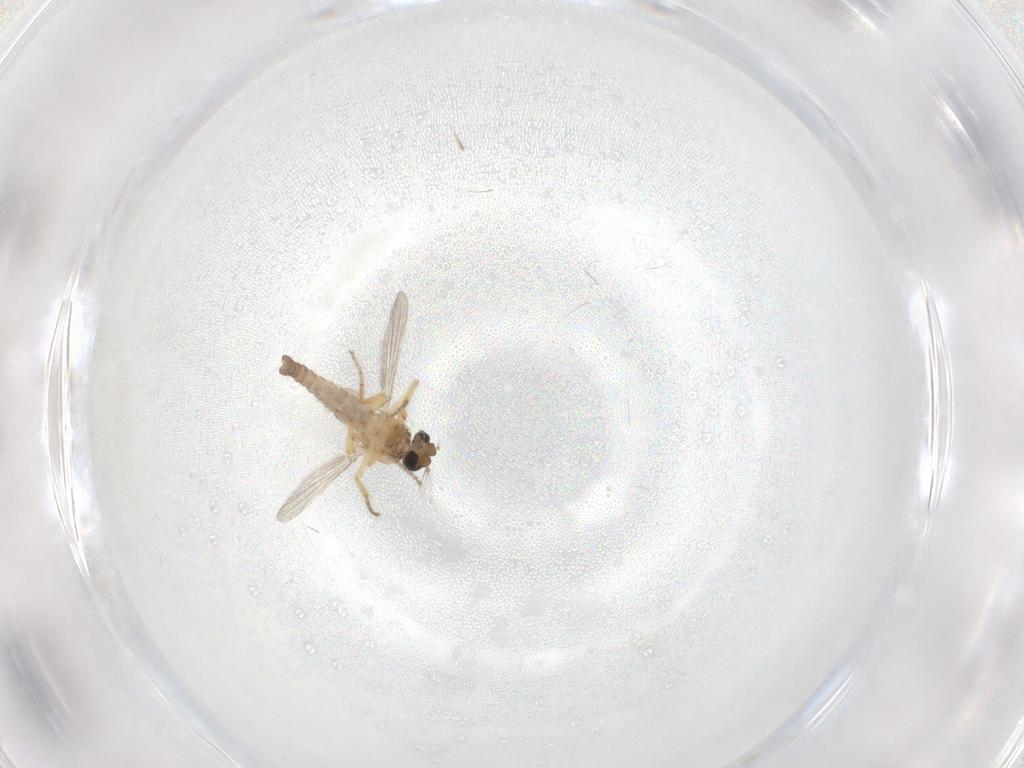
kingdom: Animalia
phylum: Arthropoda
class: Insecta
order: Diptera
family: Ceratopogonidae
